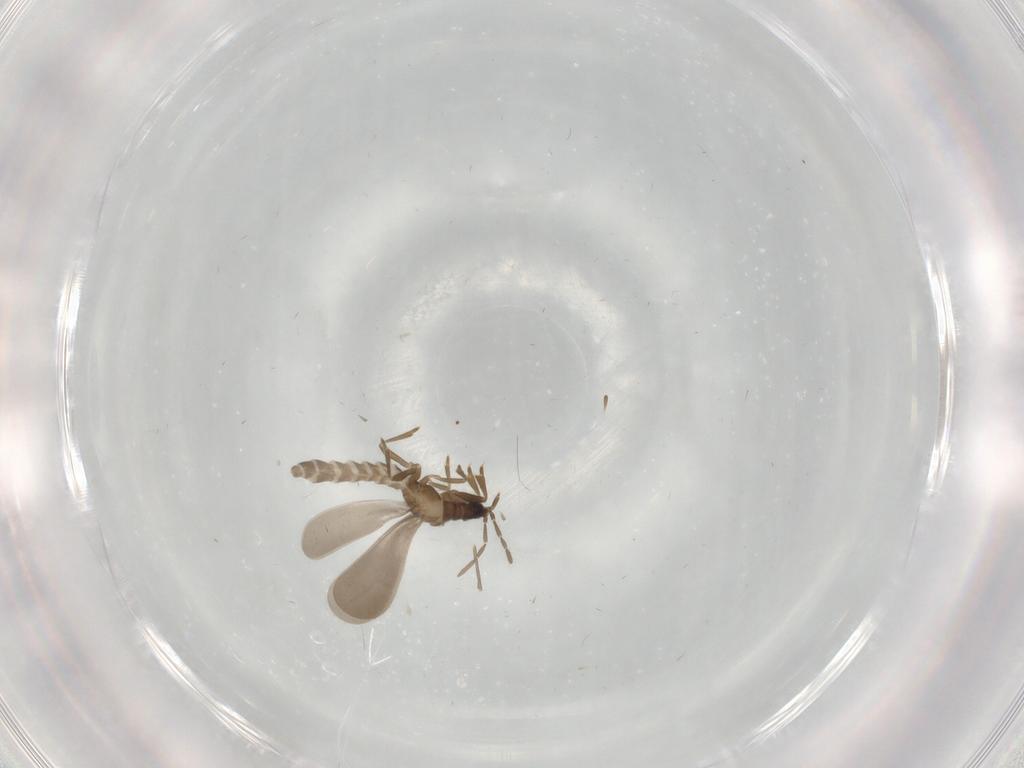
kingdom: Animalia
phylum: Arthropoda
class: Insecta
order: Hemiptera
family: Enicocephalidae
